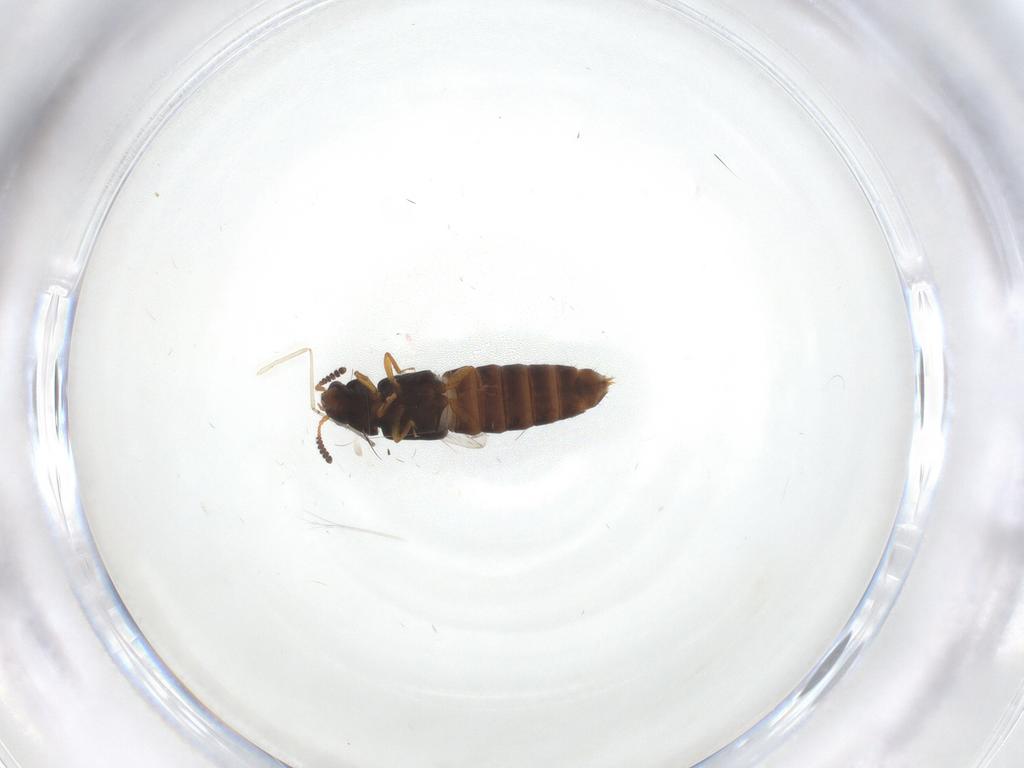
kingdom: Animalia
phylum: Arthropoda
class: Insecta
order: Coleoptera
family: Staphylinidae
